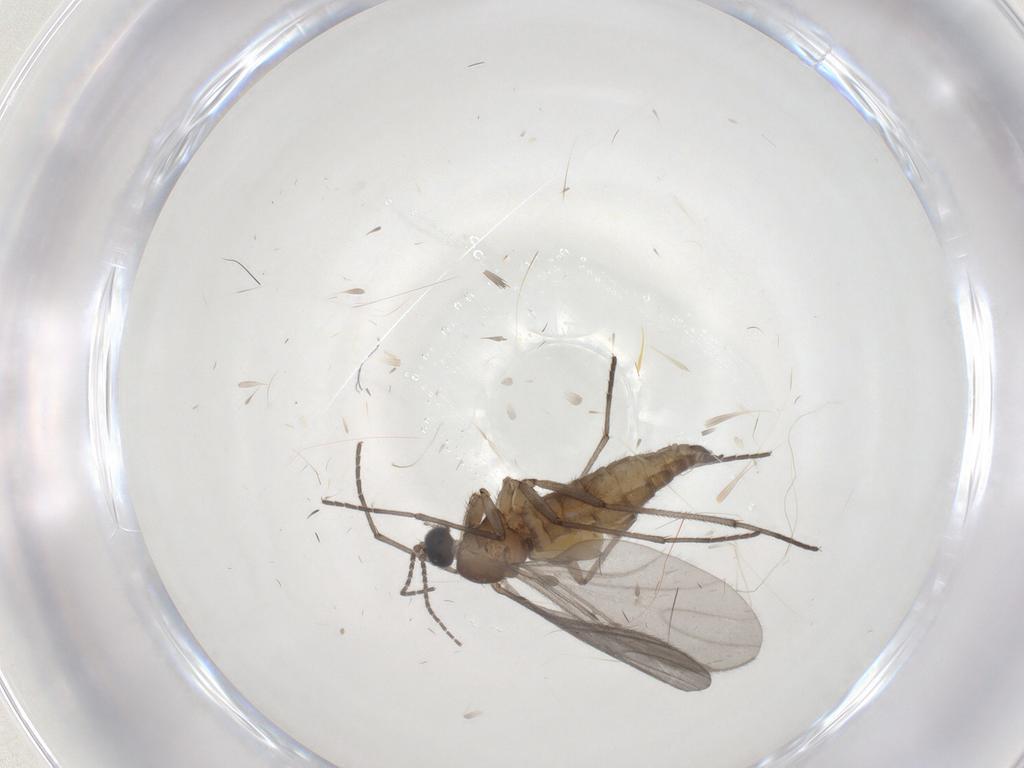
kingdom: Animalia
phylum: Arthropoda
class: Insecta
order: Diptera
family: Sciaridae
